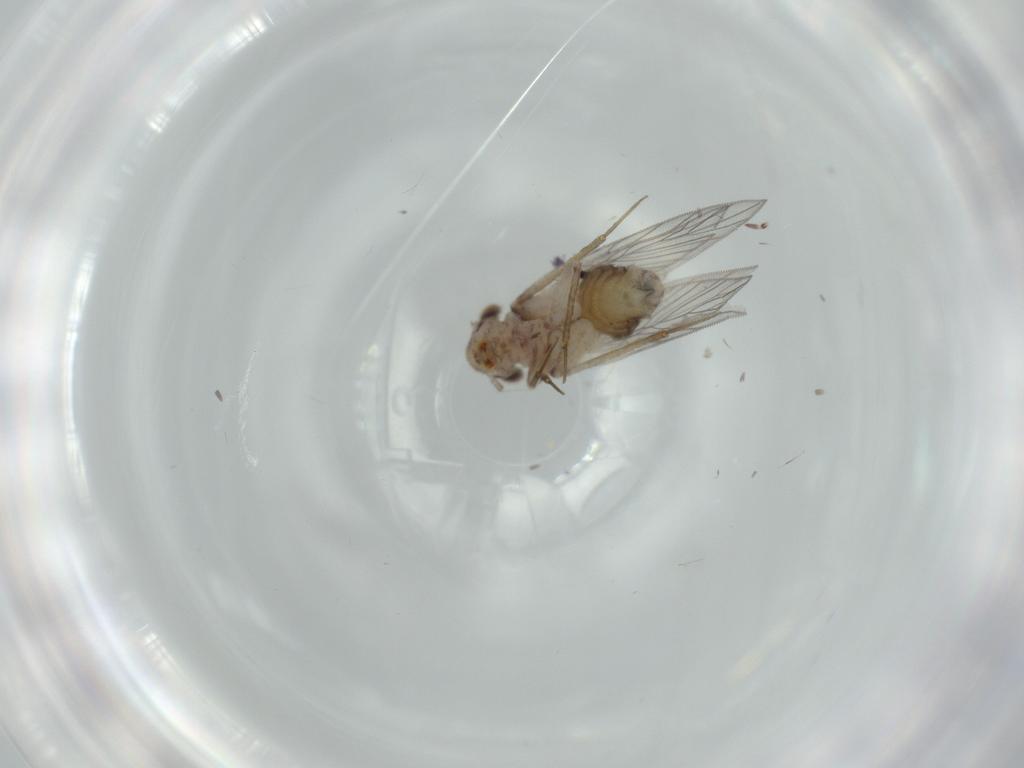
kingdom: Animalia
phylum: Arthropoda
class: Insecta
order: Psocodea
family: Lepidopsocidae
